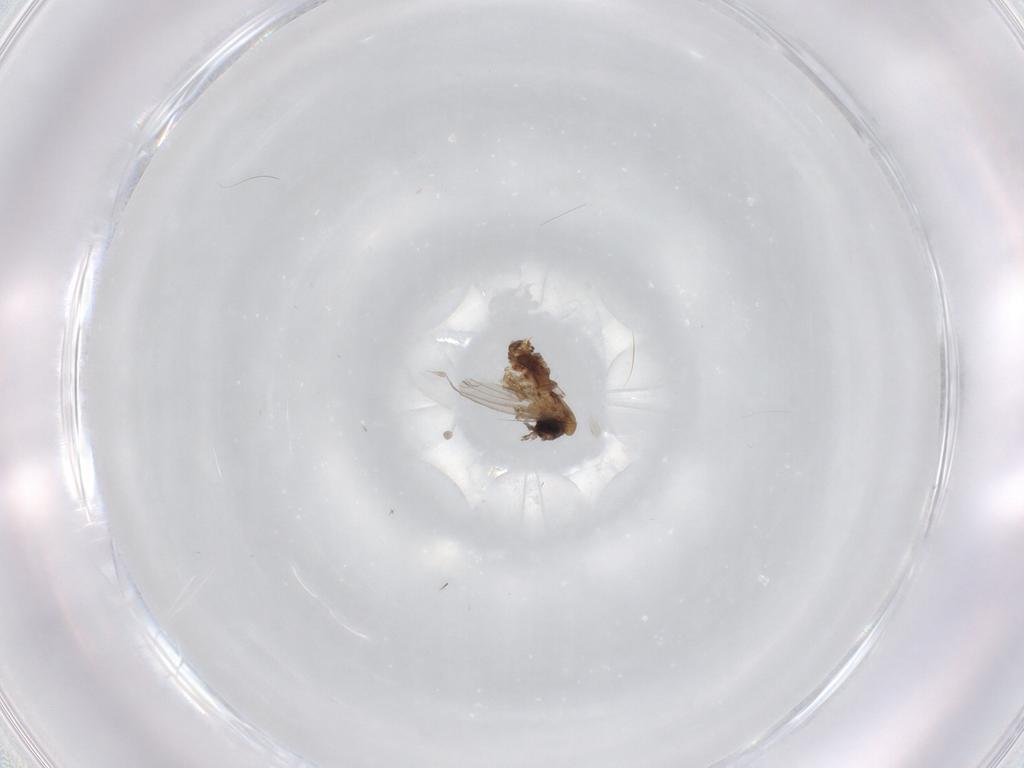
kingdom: Animalia
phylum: Arthropoda
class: Insecta
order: Diptera
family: Psychodidae
